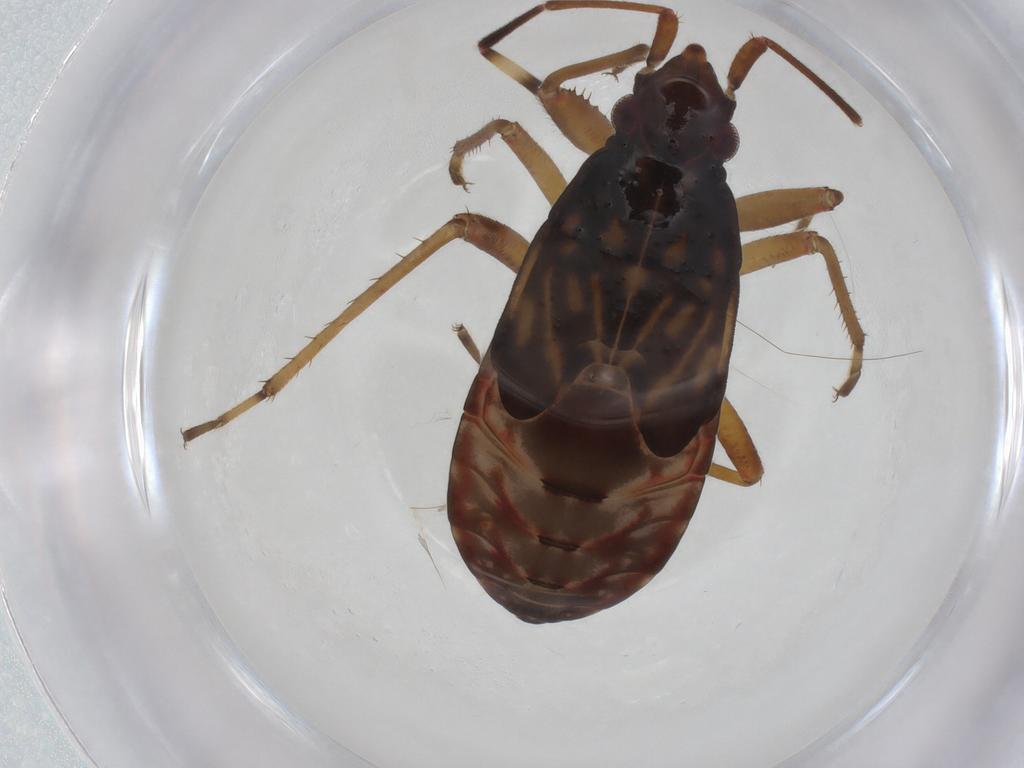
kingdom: Animalia
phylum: Arthropoda
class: Insecta
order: Hemiptera
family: Rhyparochromidae
